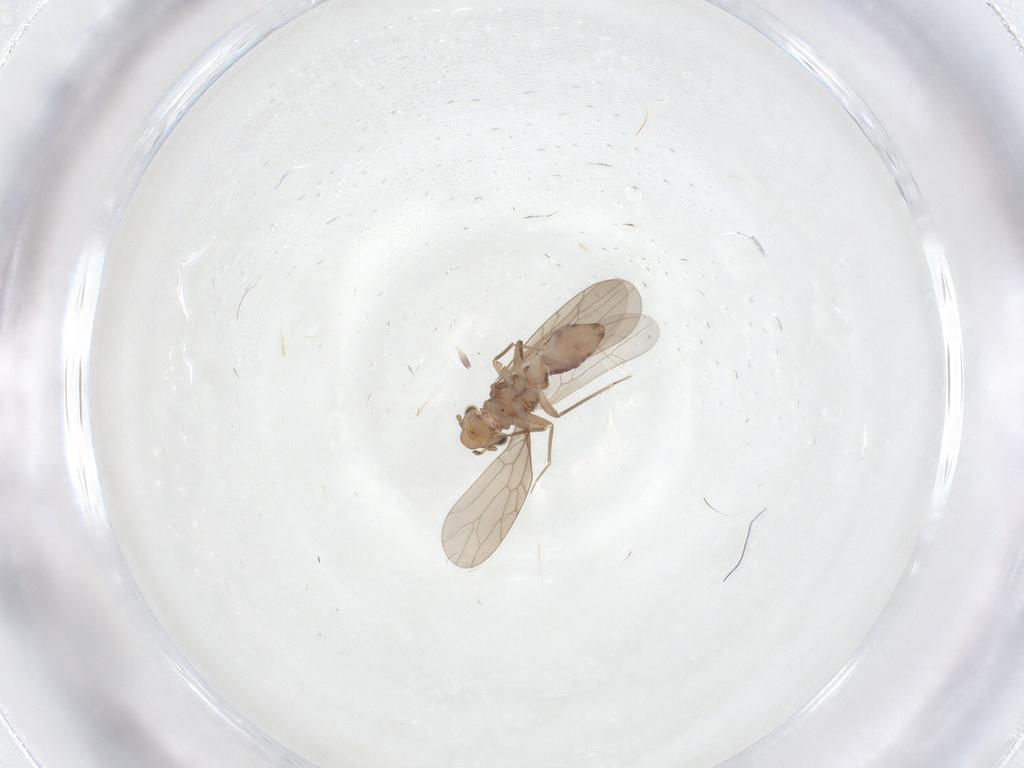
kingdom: Animalia
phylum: Arthropoda
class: Insecta
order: Psocodea
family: Lepidopsocidae
